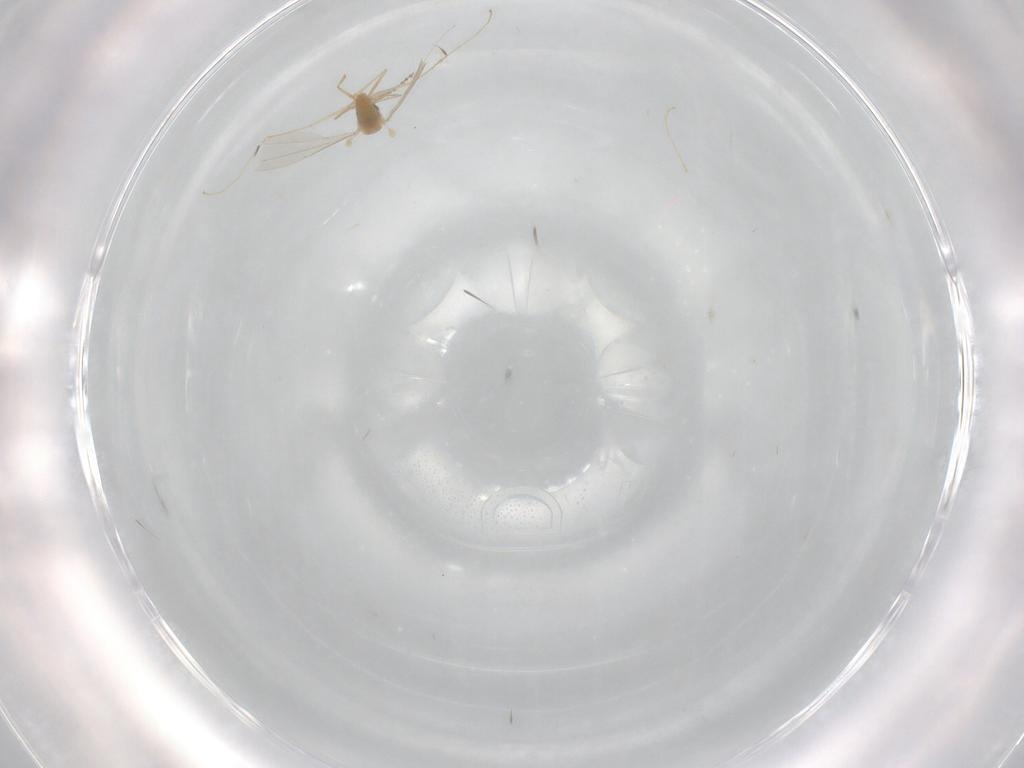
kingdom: Animalia
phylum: Arthropoda
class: Insecta
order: Diptera
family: Cecidomyiidae
